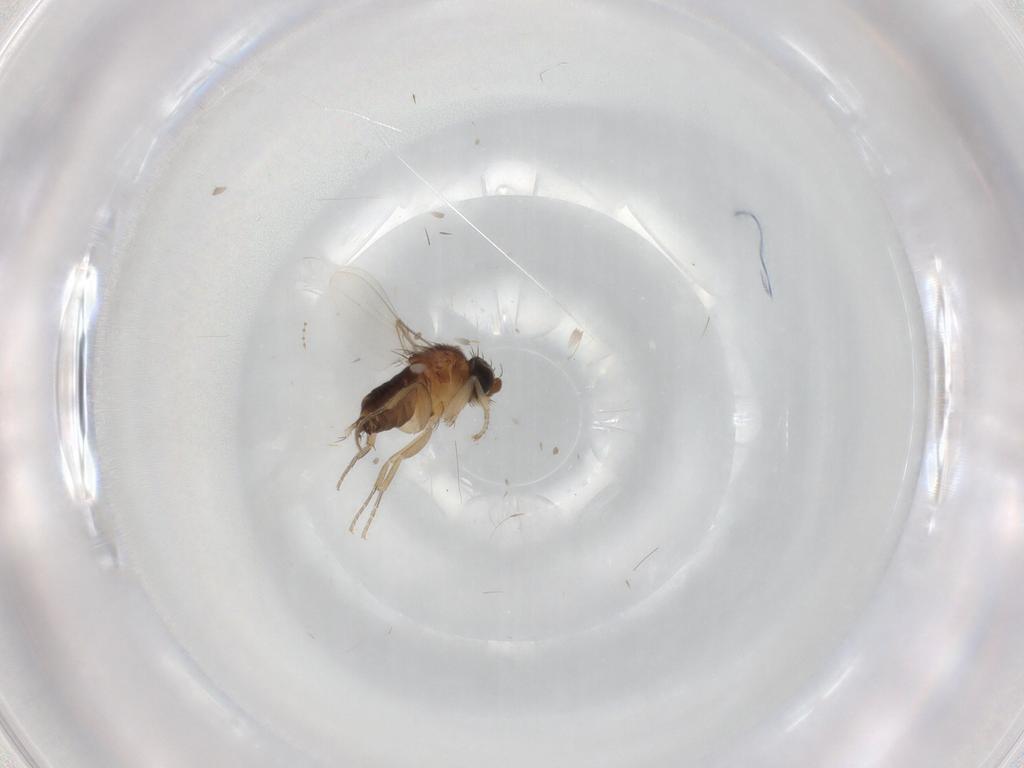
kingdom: Animalia
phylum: Arthropoda
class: Insecta
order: Diptera
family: Phoridae
